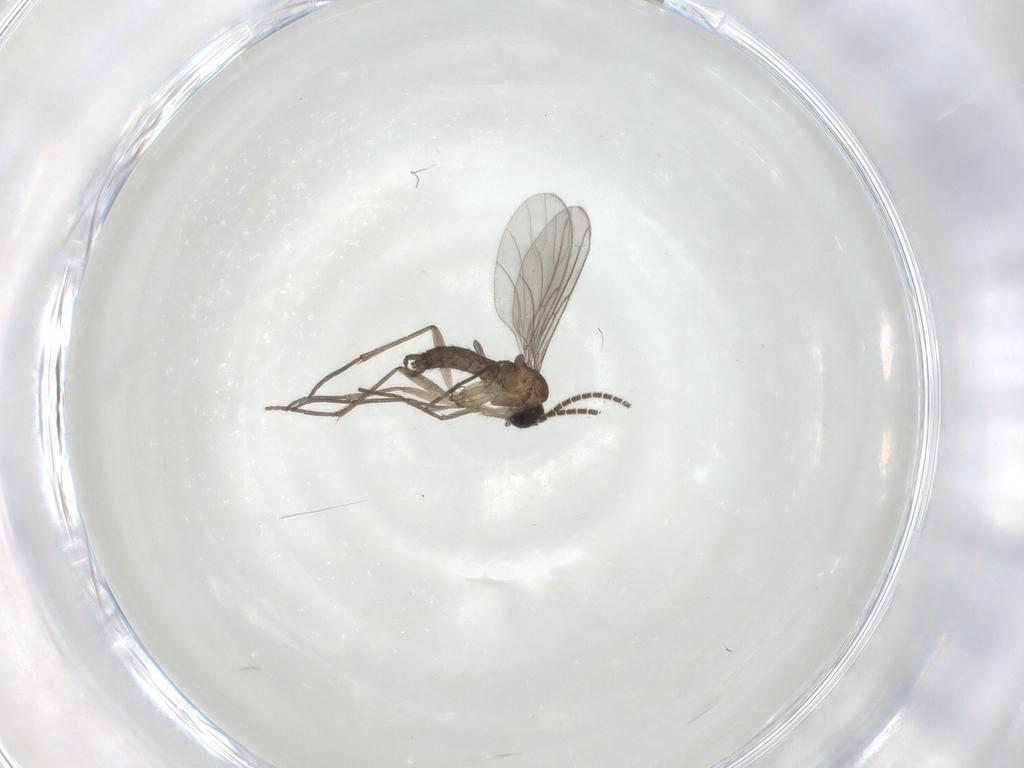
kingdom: Animalia
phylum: Arthropoda
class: Insecta
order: Diptera
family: Sciaridae
